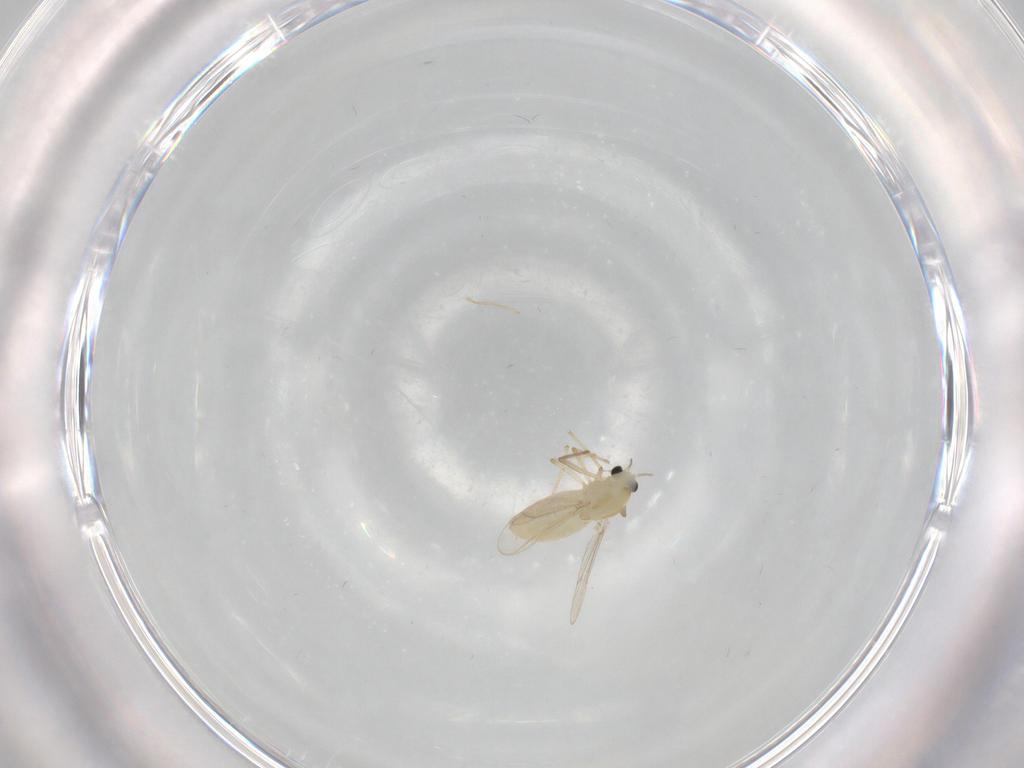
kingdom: Animalia
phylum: Arthropoda
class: Insecta
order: Diptera
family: Chironomidae
